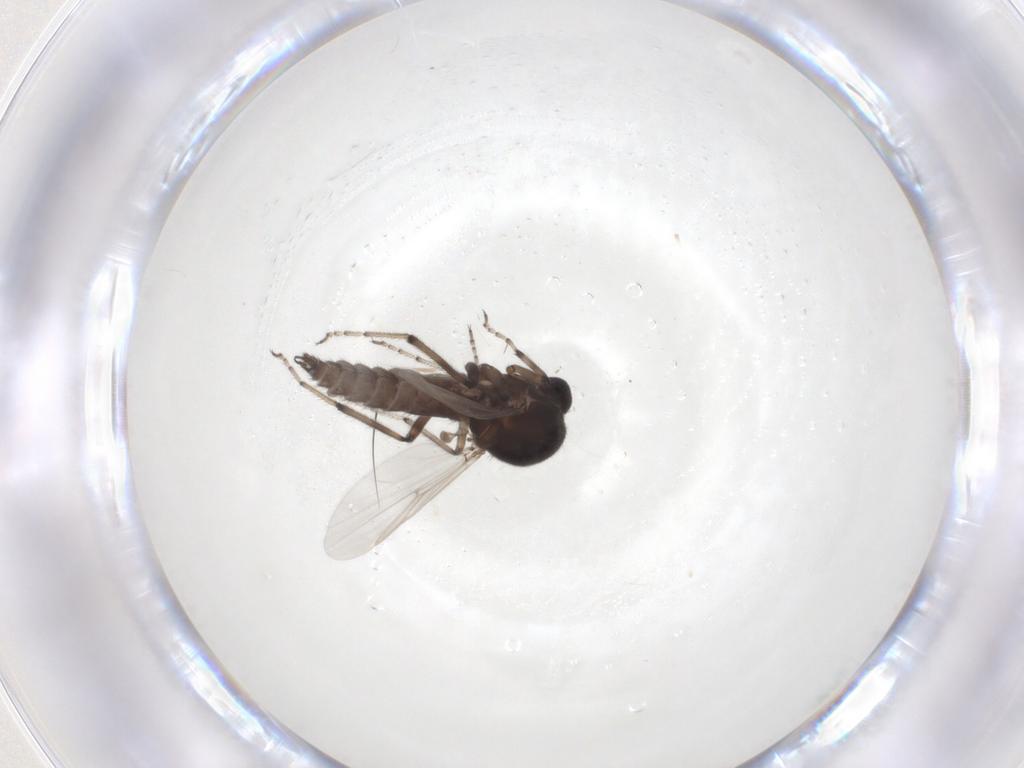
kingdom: Animalia
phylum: Arthropoda
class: Insecta
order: Diptera
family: Ceratopogonidae
